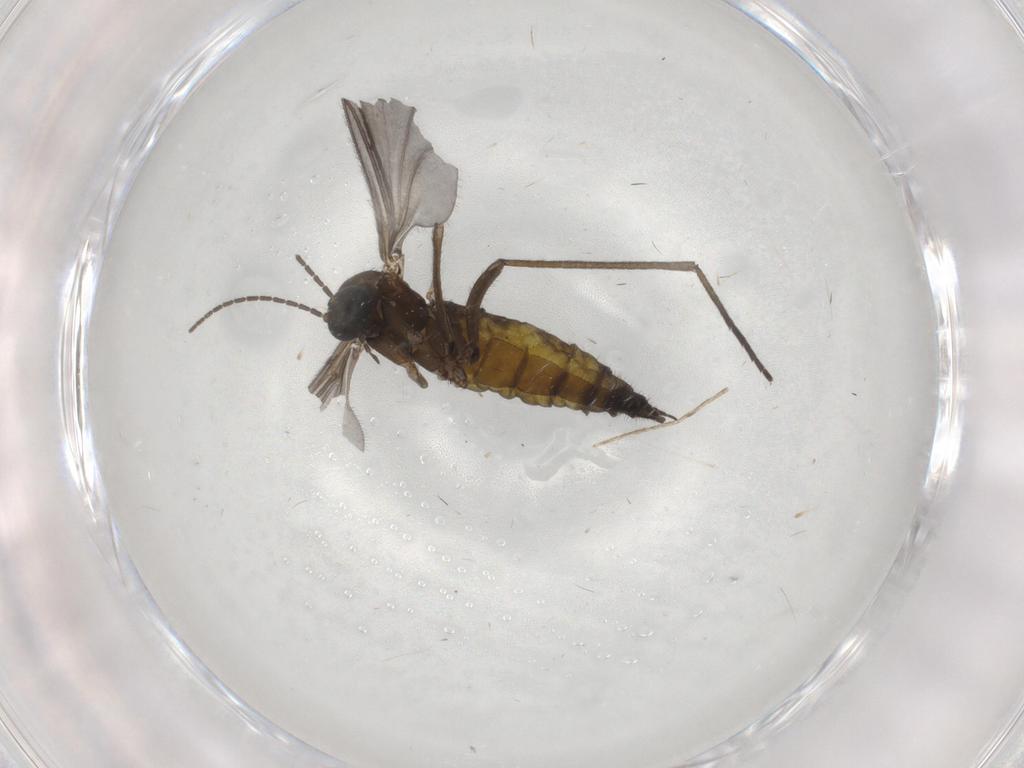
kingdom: Animalia
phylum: Arthropoda
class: Insecta
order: Diptera
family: Sciaridae
